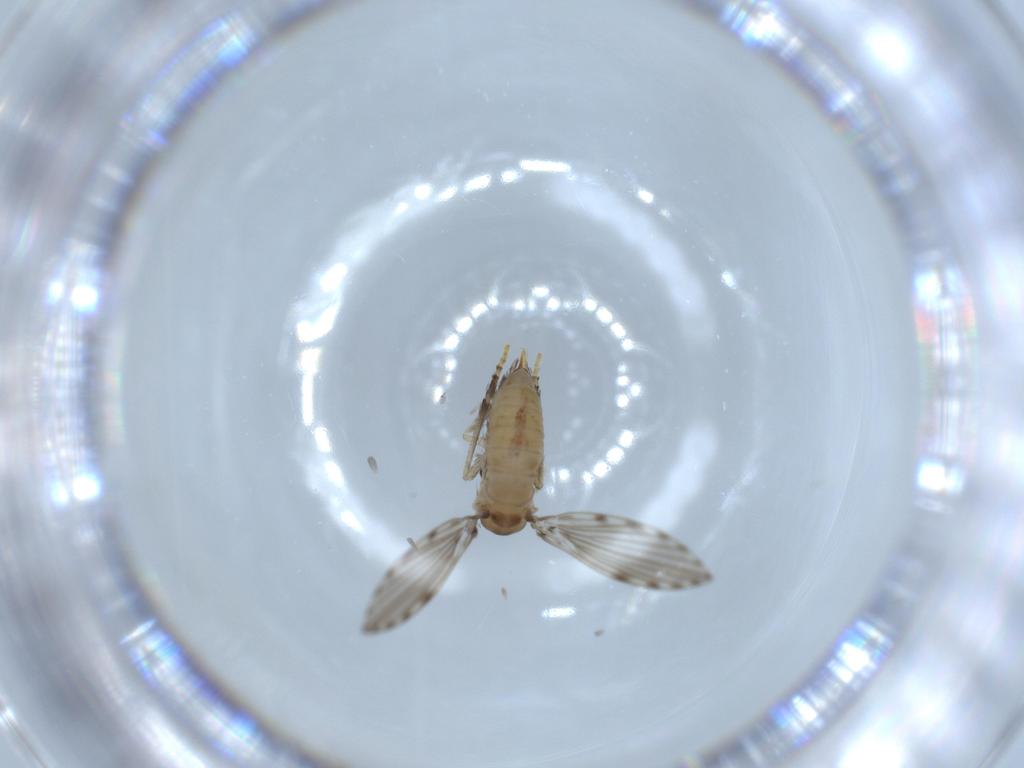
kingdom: Animalia
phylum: Arthropoda
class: Insecta
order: Diptera
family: Psychodidae
